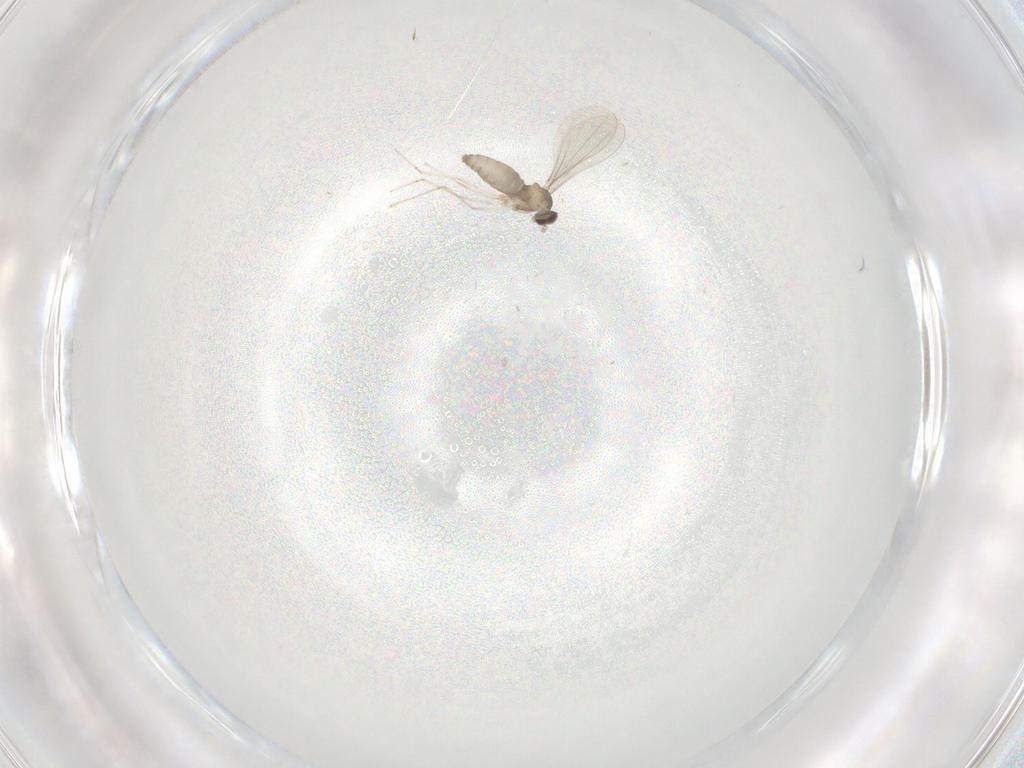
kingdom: Animalia
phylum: Arthropoda
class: Insecta
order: Diptera
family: Cecidomyiidae
